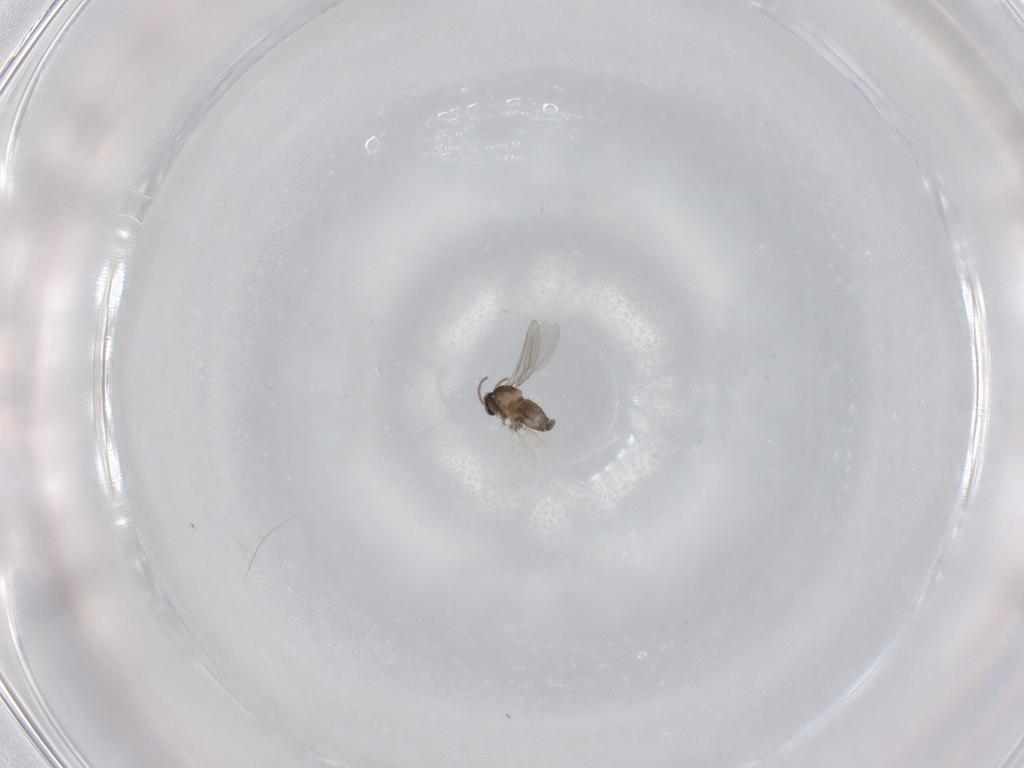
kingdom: Animalia
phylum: Arthropoda
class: Insecta
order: Diptera
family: Cecidomyiidae
